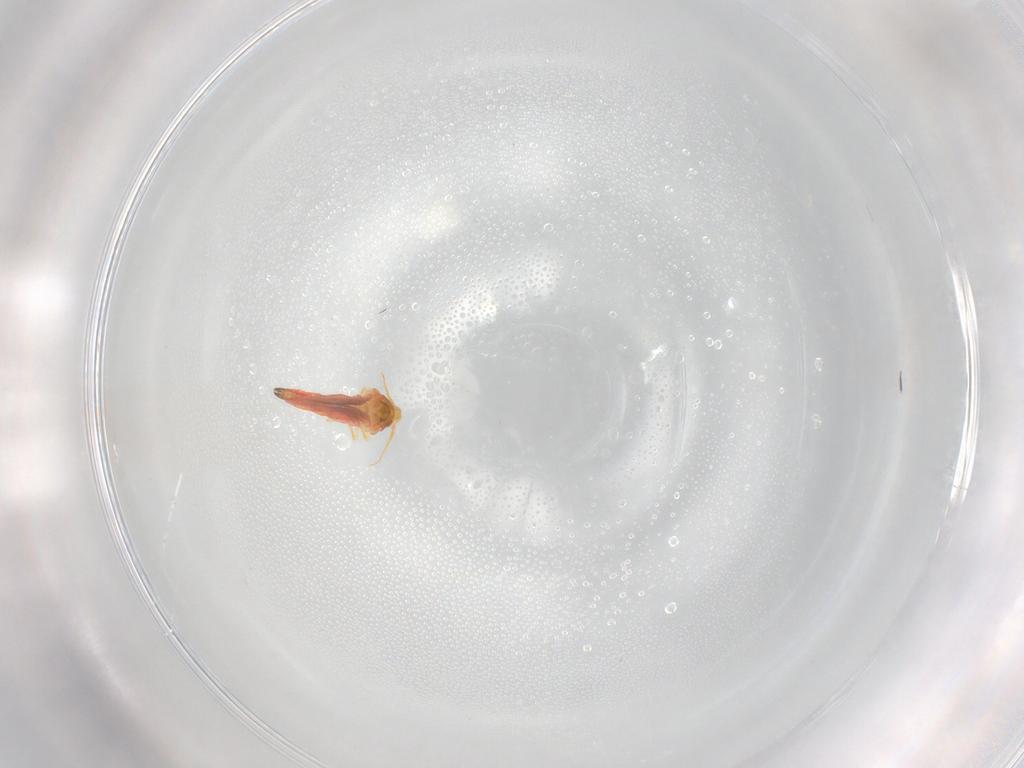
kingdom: Animalia
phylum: Arthropoda
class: Insecta
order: Hemiptera
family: Aleyrodidae
